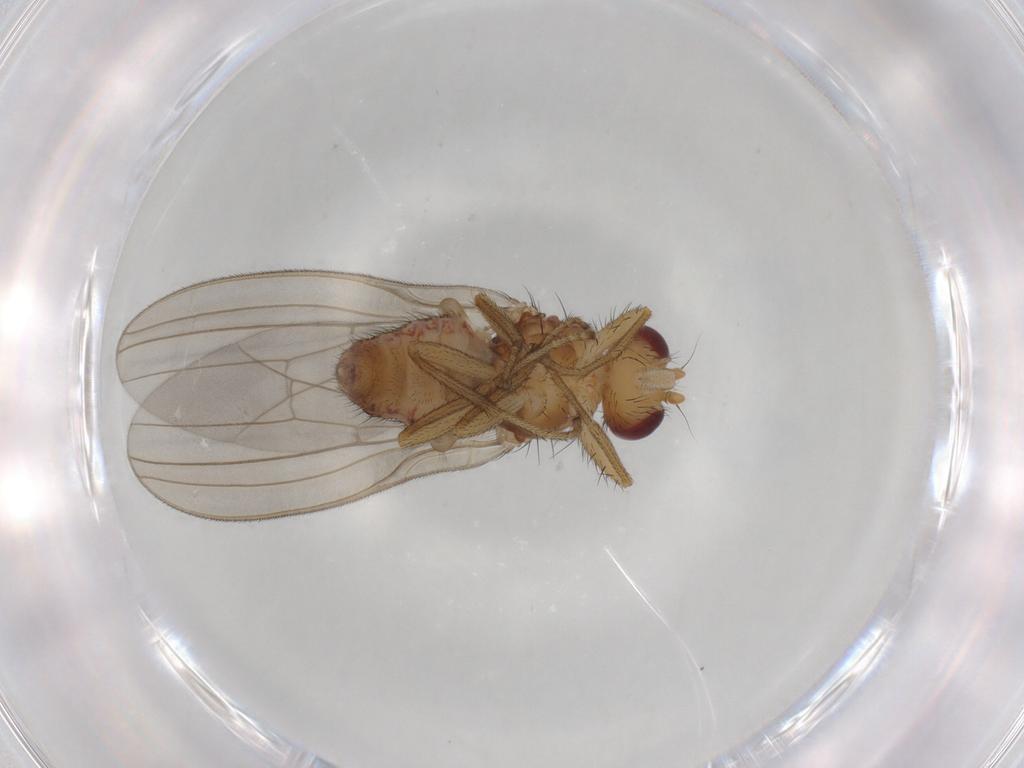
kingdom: Animalia
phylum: Arthropoda
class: Insecta
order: Diptera
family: Natalimyzidae
